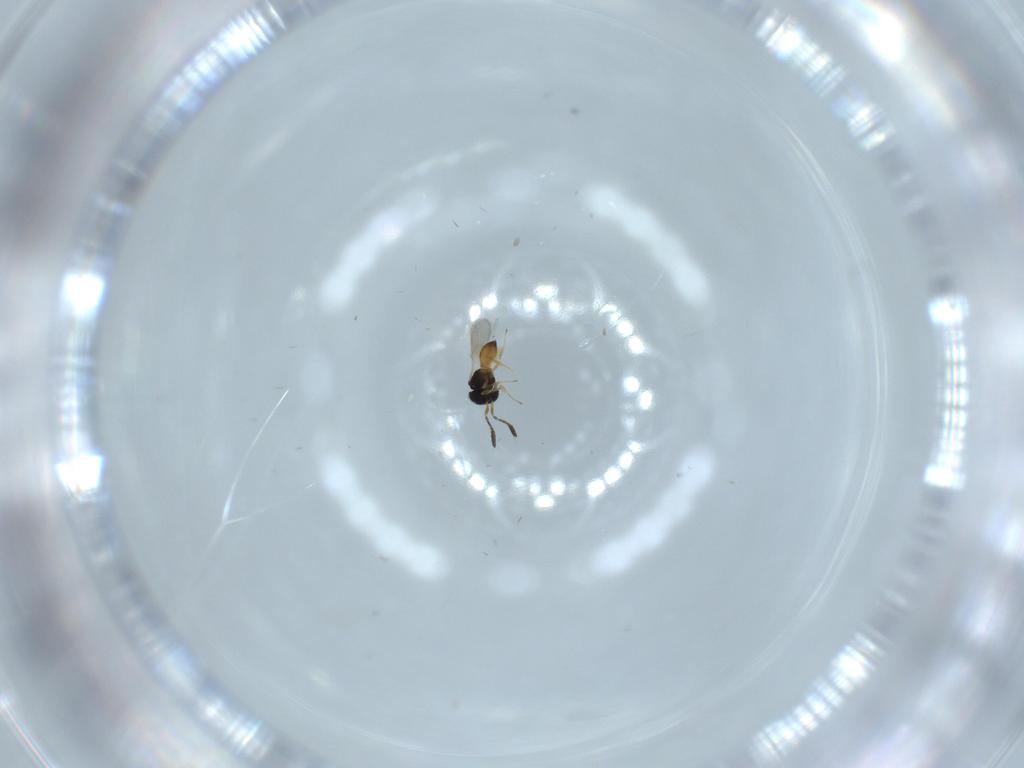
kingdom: Animalia
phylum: Arthropoda
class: Insecta
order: Hymenoptera
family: Scelionidae
